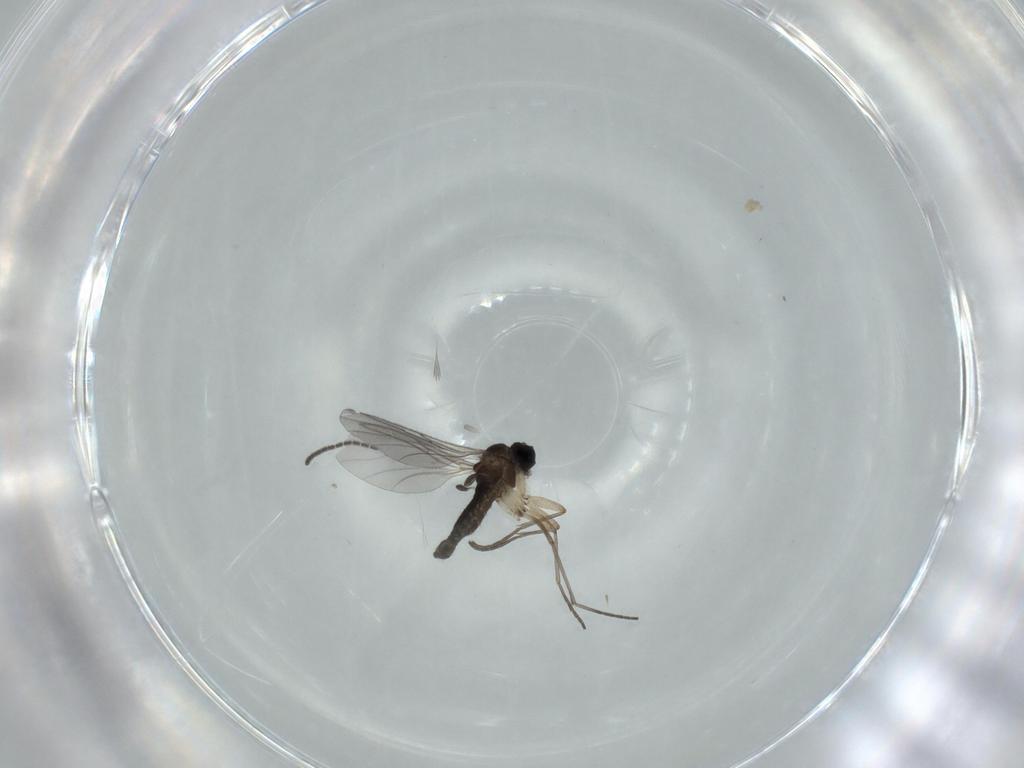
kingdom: Animalia
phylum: Arthropoda
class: Insecta
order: Diptera
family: Sciaridae
